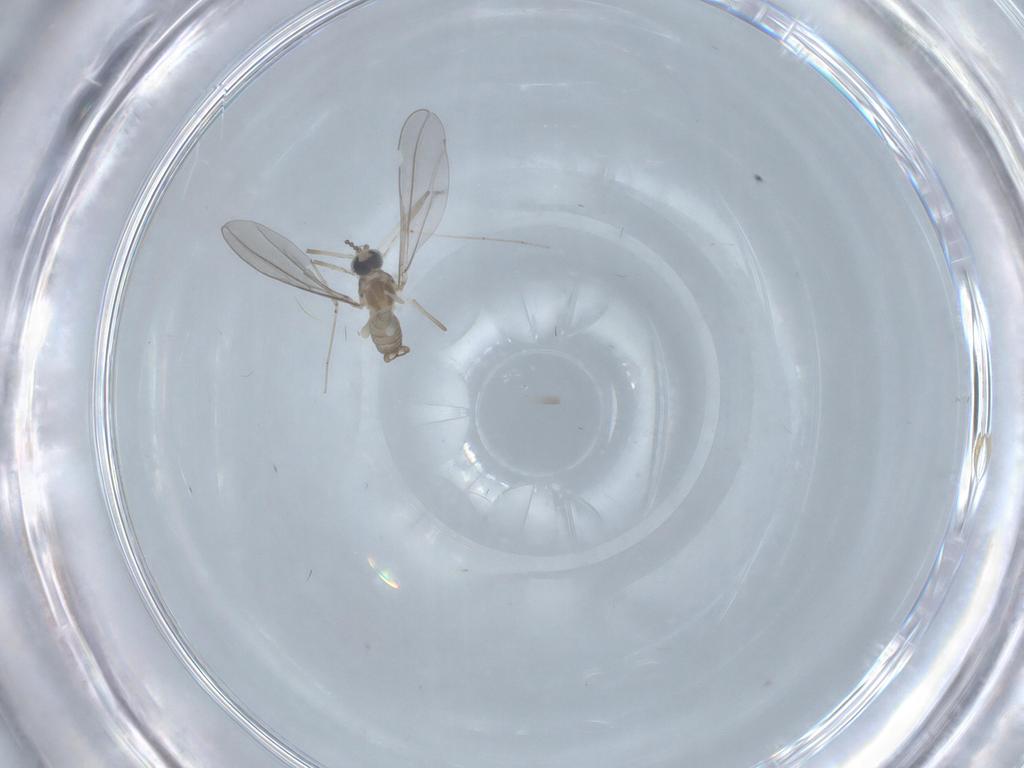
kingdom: Animalia
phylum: Arthropoda
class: Insecta
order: Diptera
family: Cecidomyiidae
